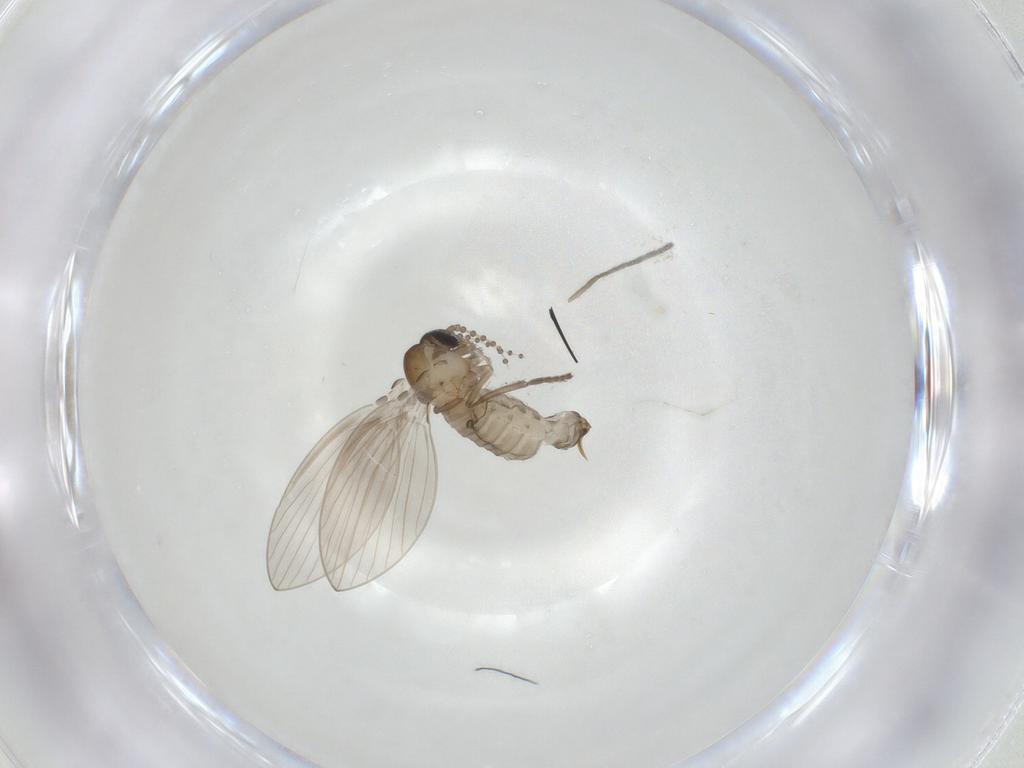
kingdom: Animalia
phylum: Arthropoda
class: Insecta
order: Diptera
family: Psychodidae
